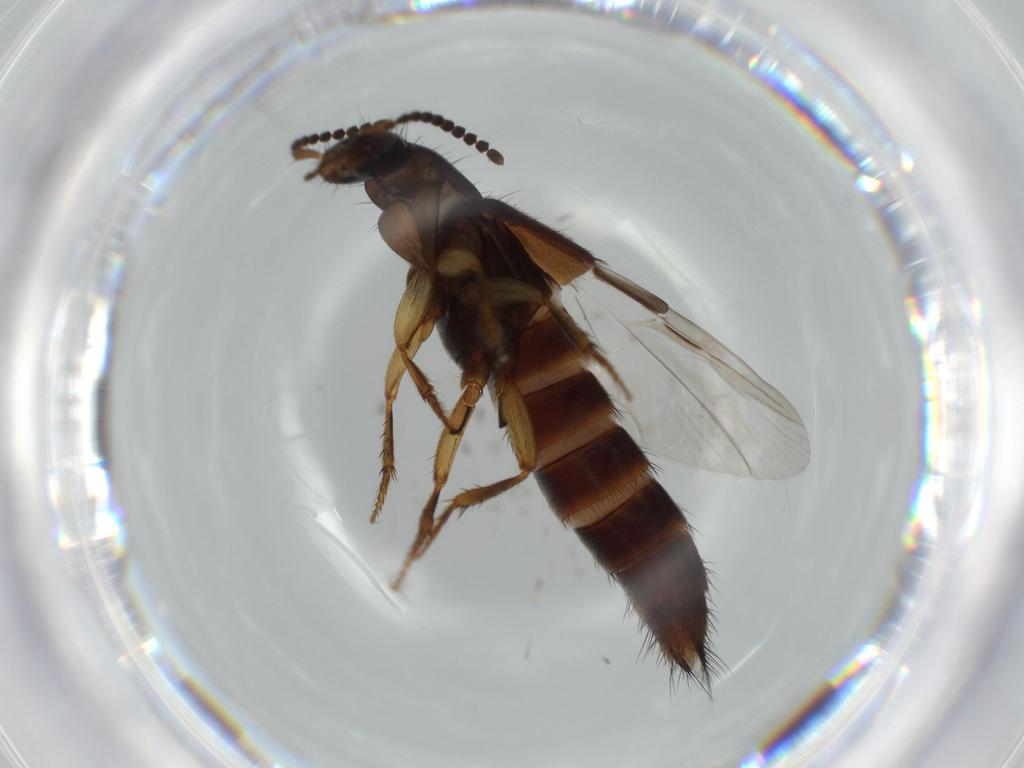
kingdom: Animalia
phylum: Arthropoda
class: Insecta
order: Coleoptera
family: Staphylinidae
